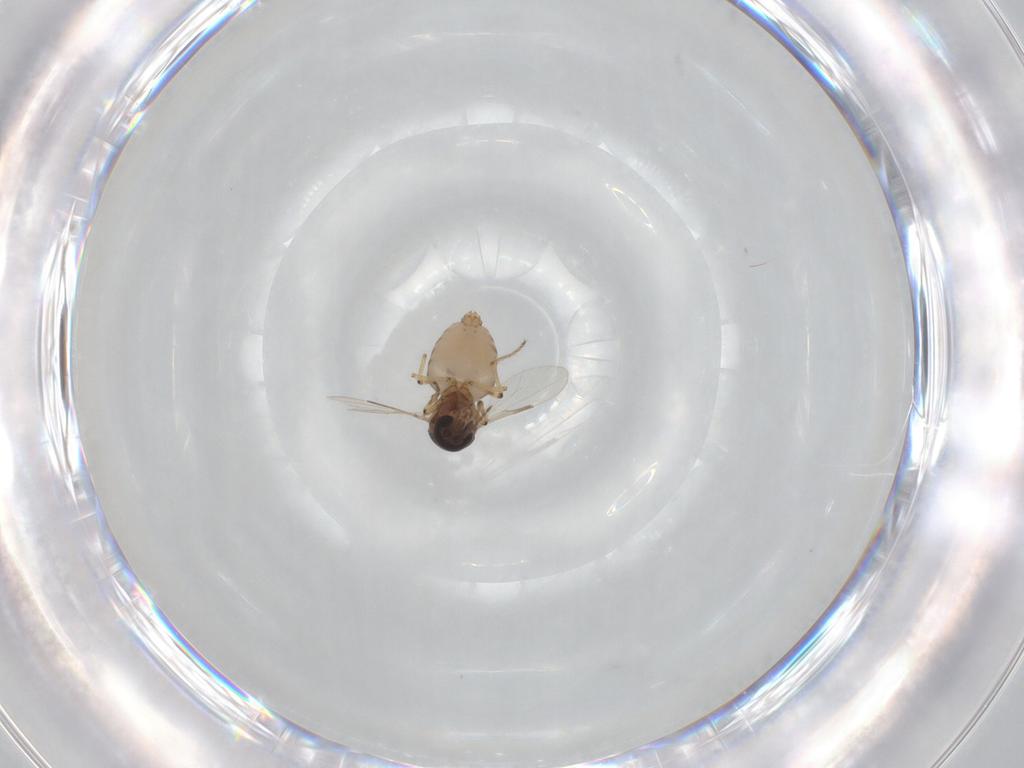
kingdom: Animalia
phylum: Arthropoda
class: Insecta
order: Diptera
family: Ceratopogonidae
